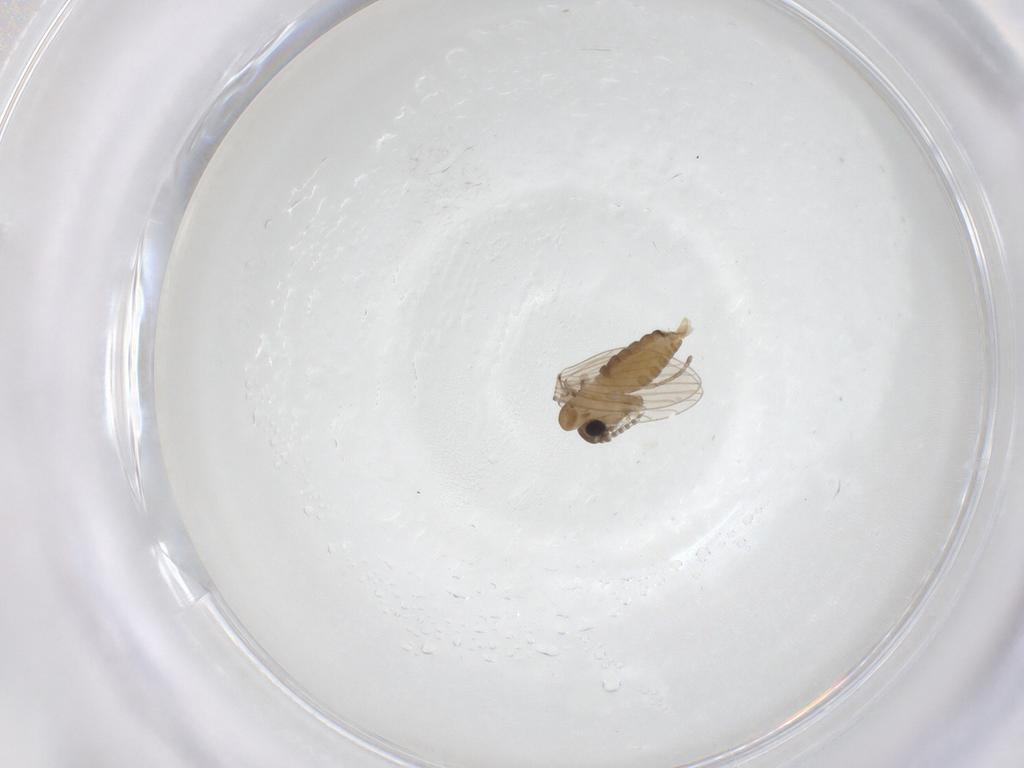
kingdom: Animalia
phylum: Arthropoda
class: Insecta
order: Diptera
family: Psychodidae
